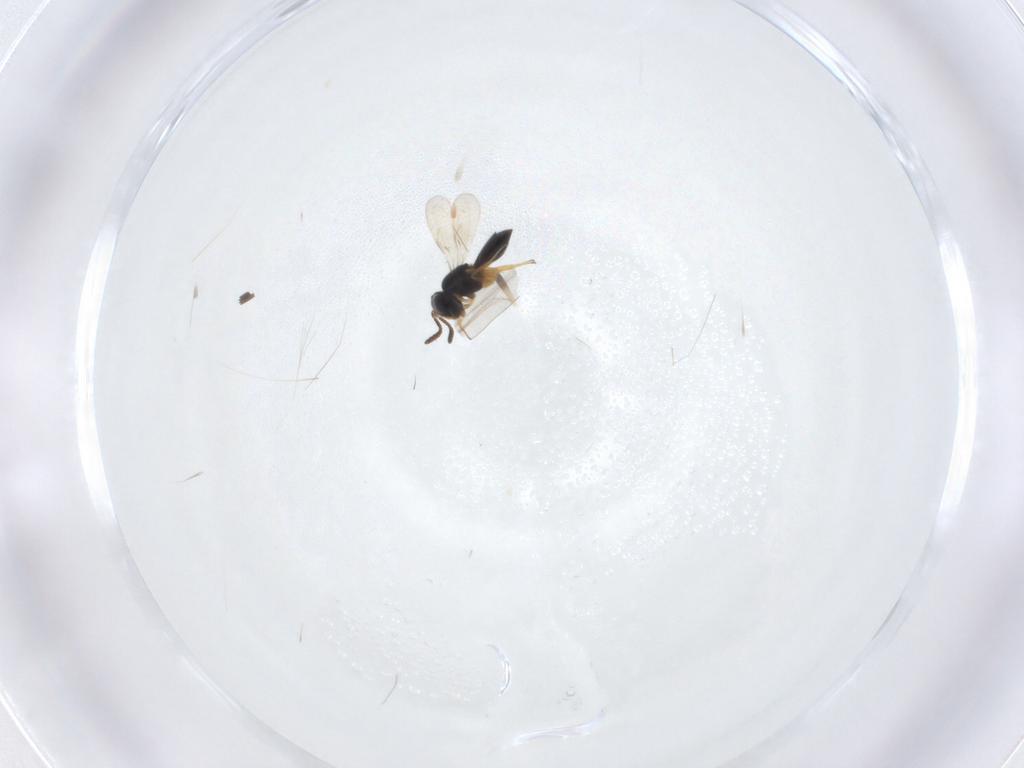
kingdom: Animalia
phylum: Arthropoda
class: Insecta
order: Hymenoptera
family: Scelionidae
